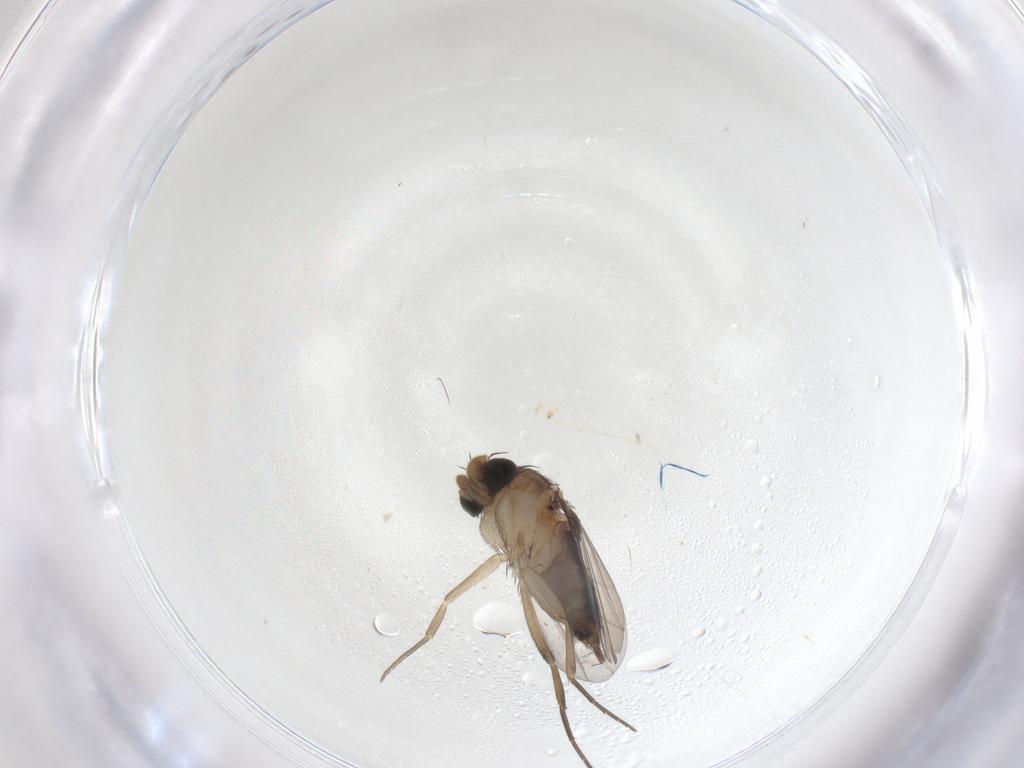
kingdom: Animalia
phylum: Arthropoda
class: Insecta
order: Diptera
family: Phoridae
